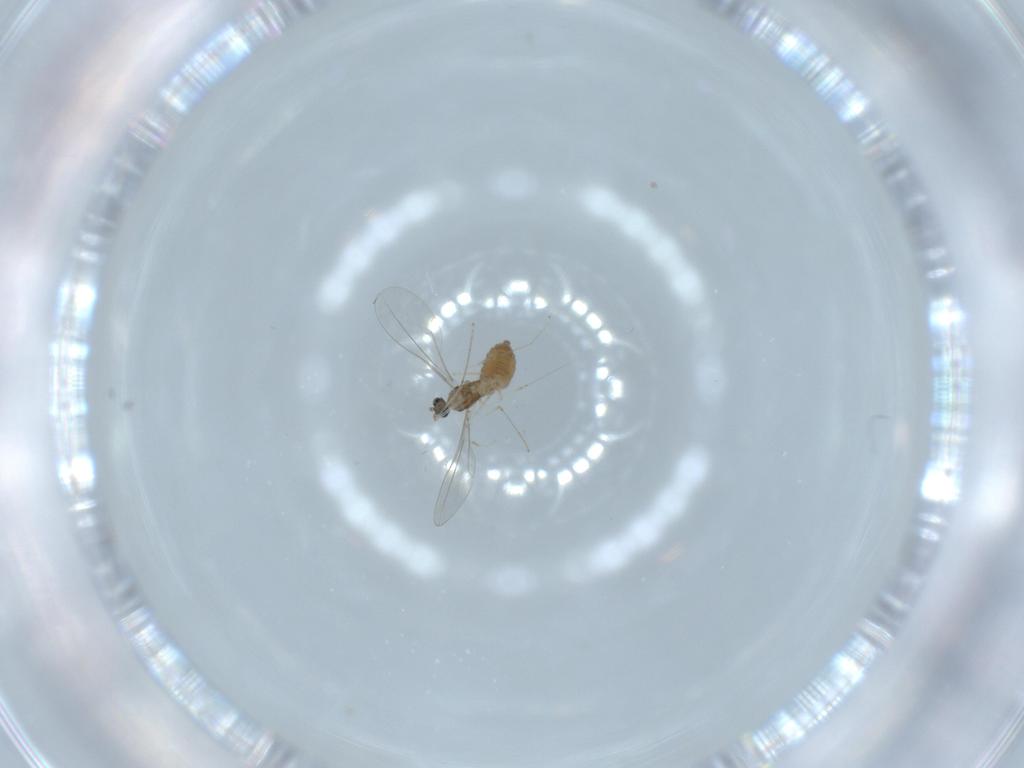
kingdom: Animalia
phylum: Arthropoda
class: Insecta
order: Diptera
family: Cecidomyiidae
